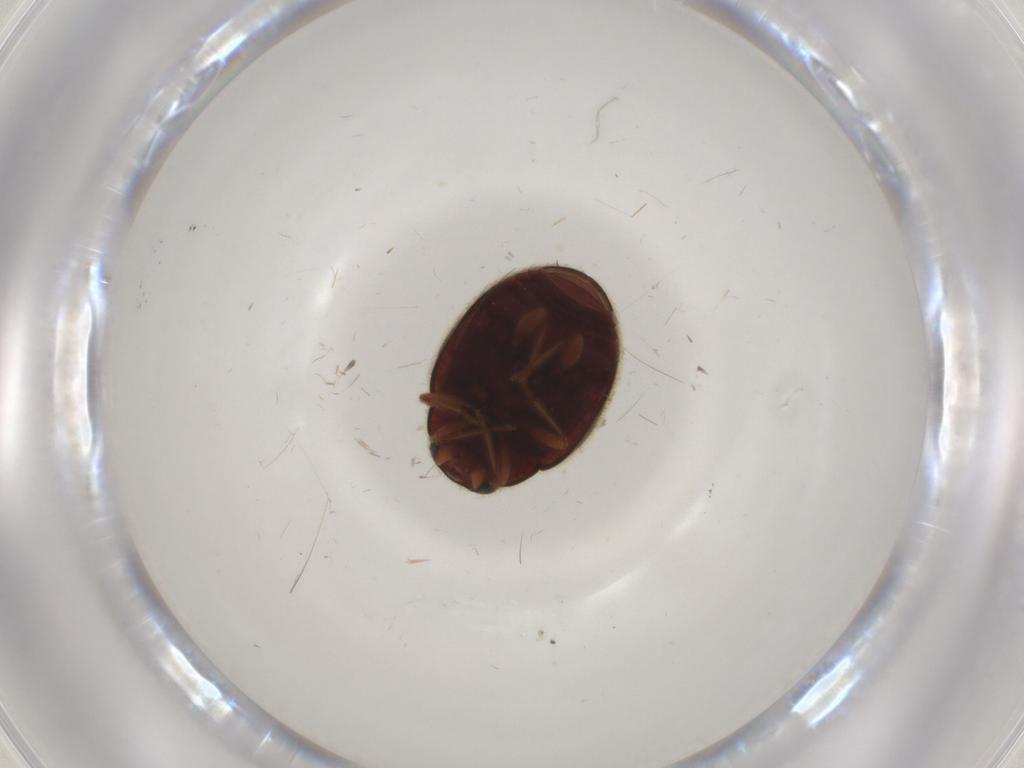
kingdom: Animalia
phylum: Arthropoda
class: Insecta
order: Coleoptera
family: Coccinellidae
